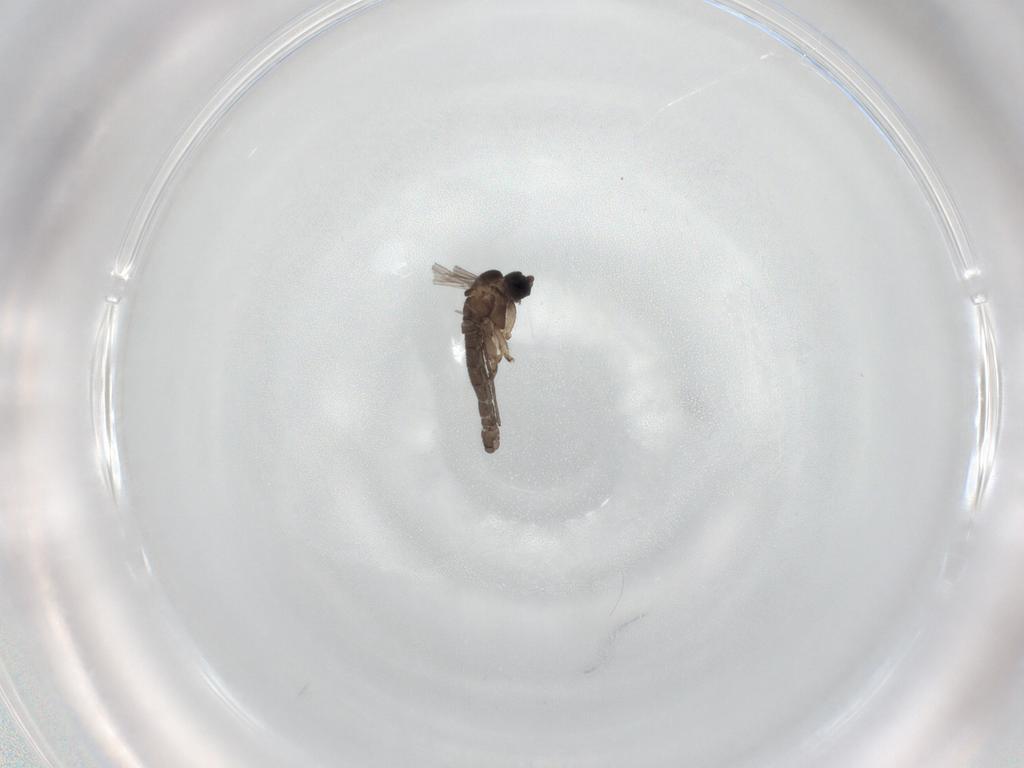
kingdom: Animalia
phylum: Arthropoda
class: Insecta
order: Diptera
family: Sciaridae
